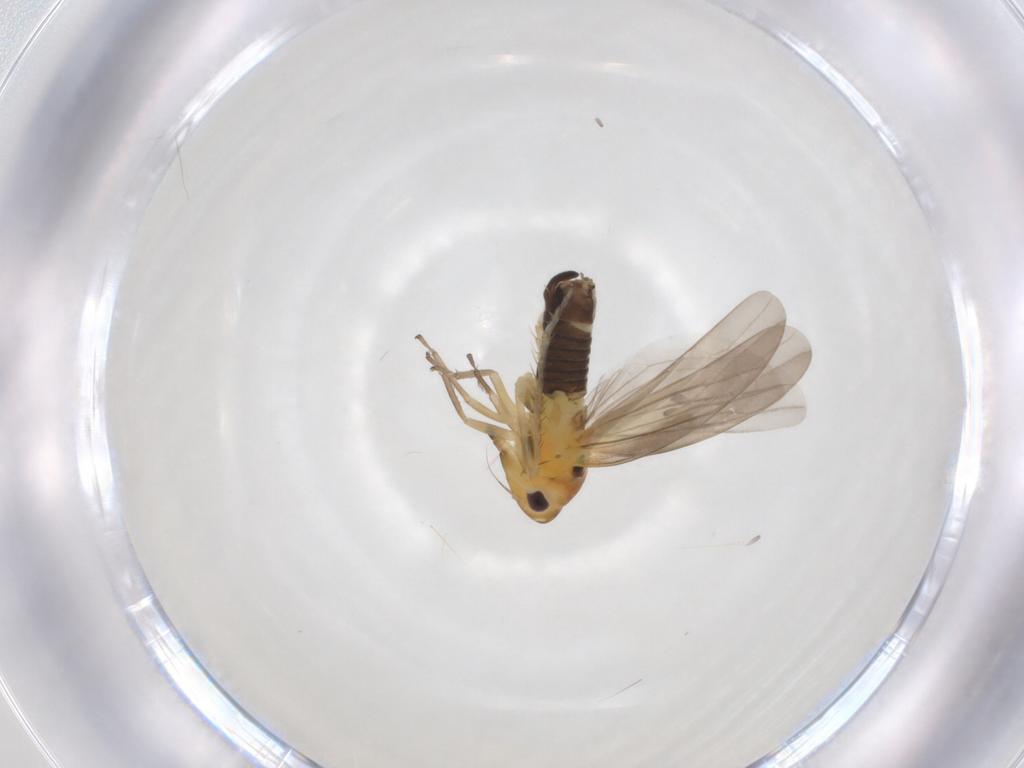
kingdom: Animalia
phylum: Arthropoda
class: Insecta
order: Hemiptera
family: Cicadellidae
